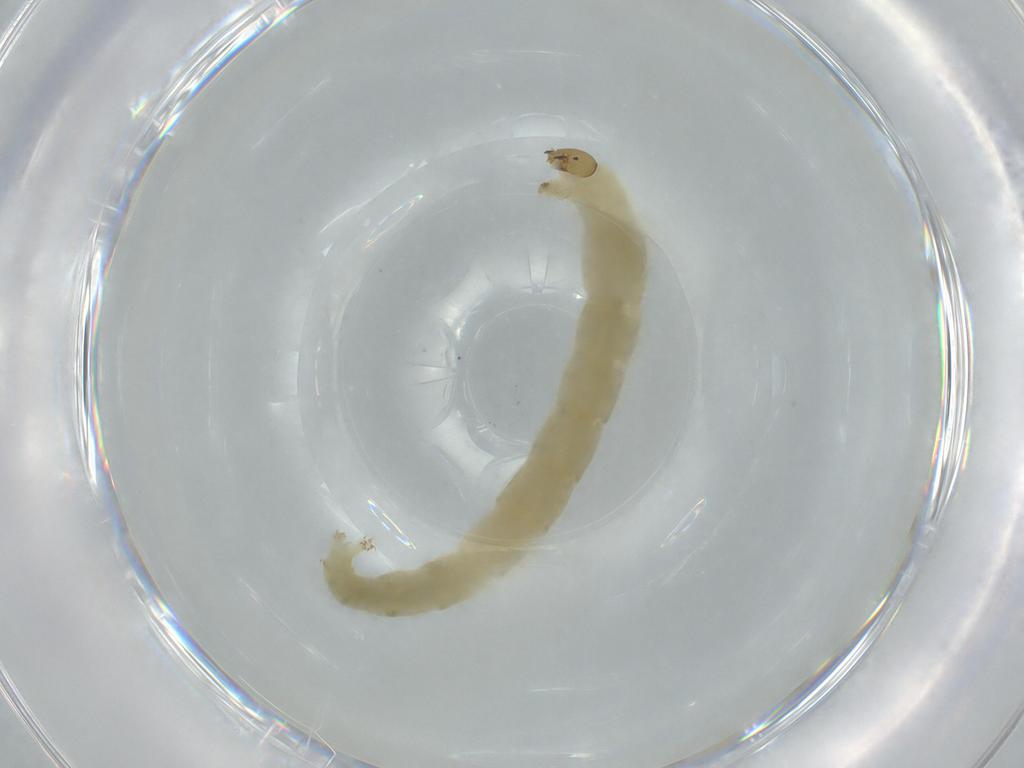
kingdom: Animalia
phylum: Arthropoda
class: Insecta
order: Diptera
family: Chironomidae
